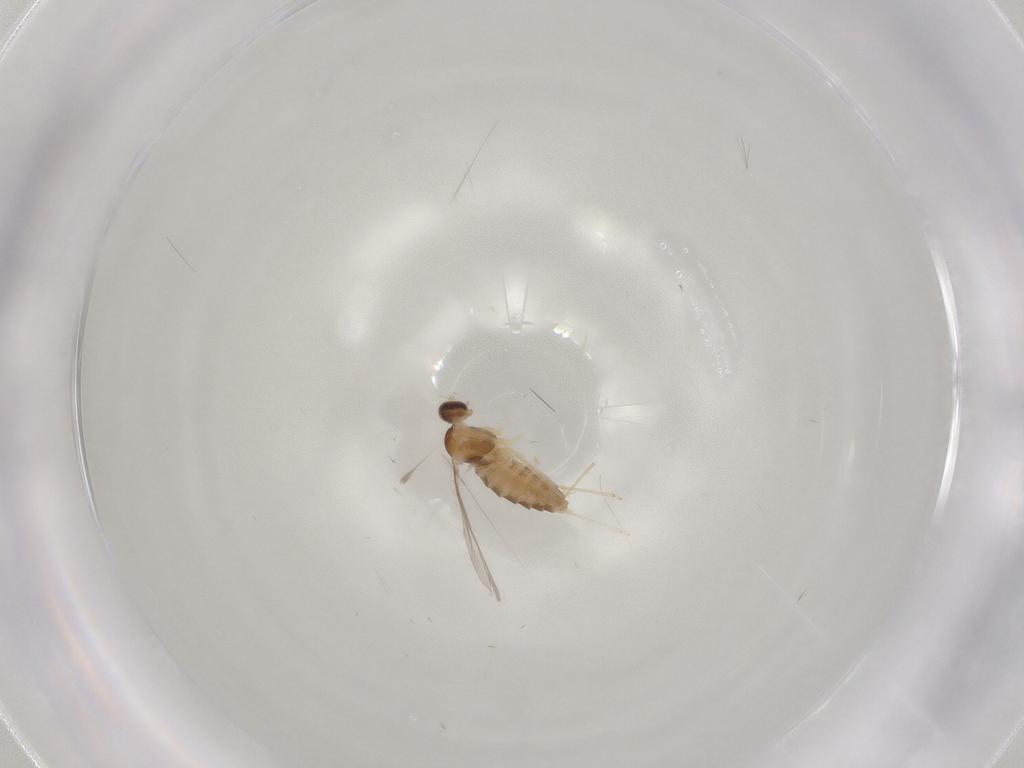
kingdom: Animalia
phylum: Arthropoda
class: Insecta
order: Diptera
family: Cecidomyiidae
